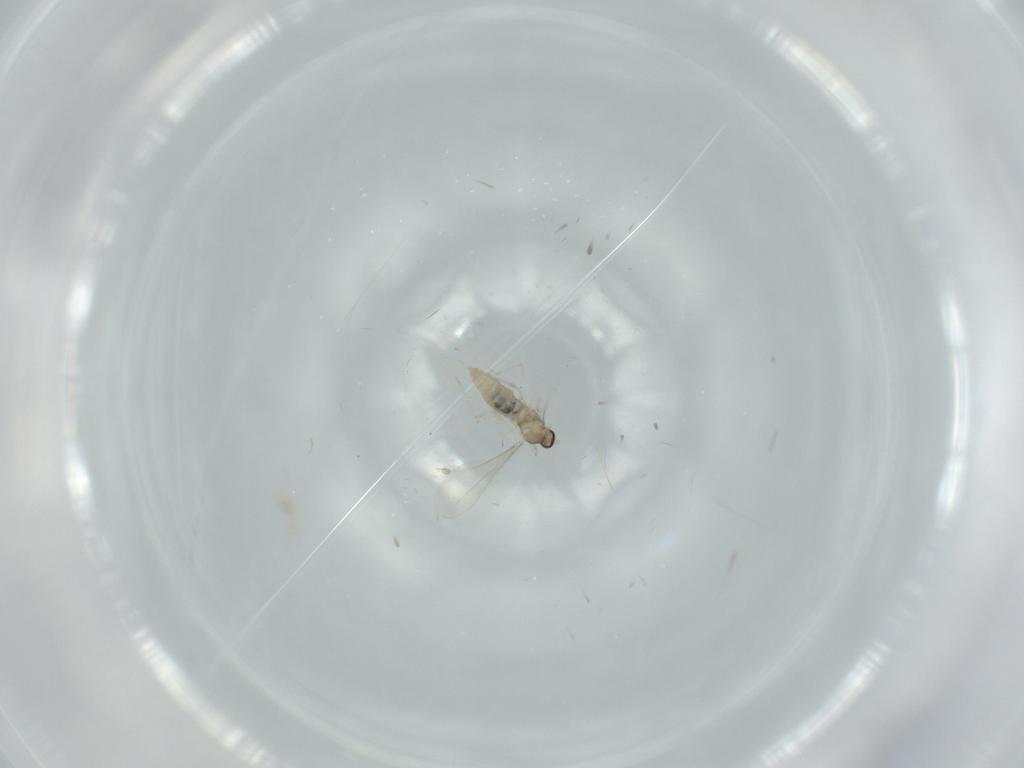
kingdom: Animalia
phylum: Arthropoda
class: Insecta
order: Diptera
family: Cecidomyiidae
